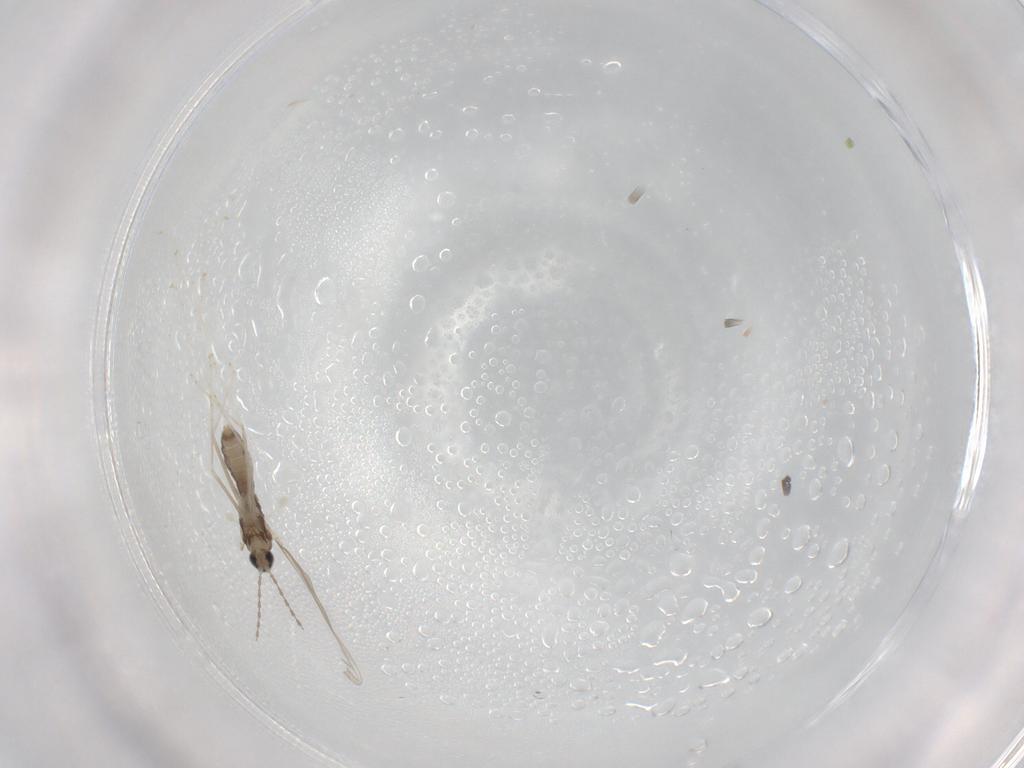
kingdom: Animalia
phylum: Arthropoda
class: Insecta
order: Diptera
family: Cecidomyiidae
